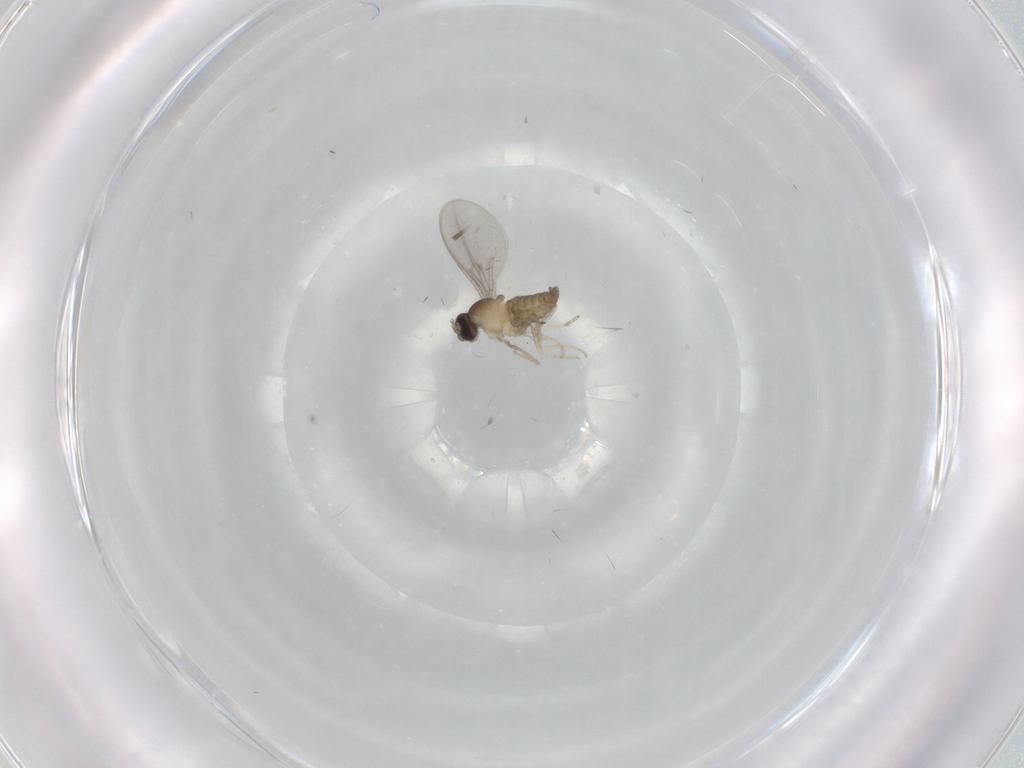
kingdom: Animalia
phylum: Arthropoda
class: Insecta
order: Diptera
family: Cecidomyiidae
